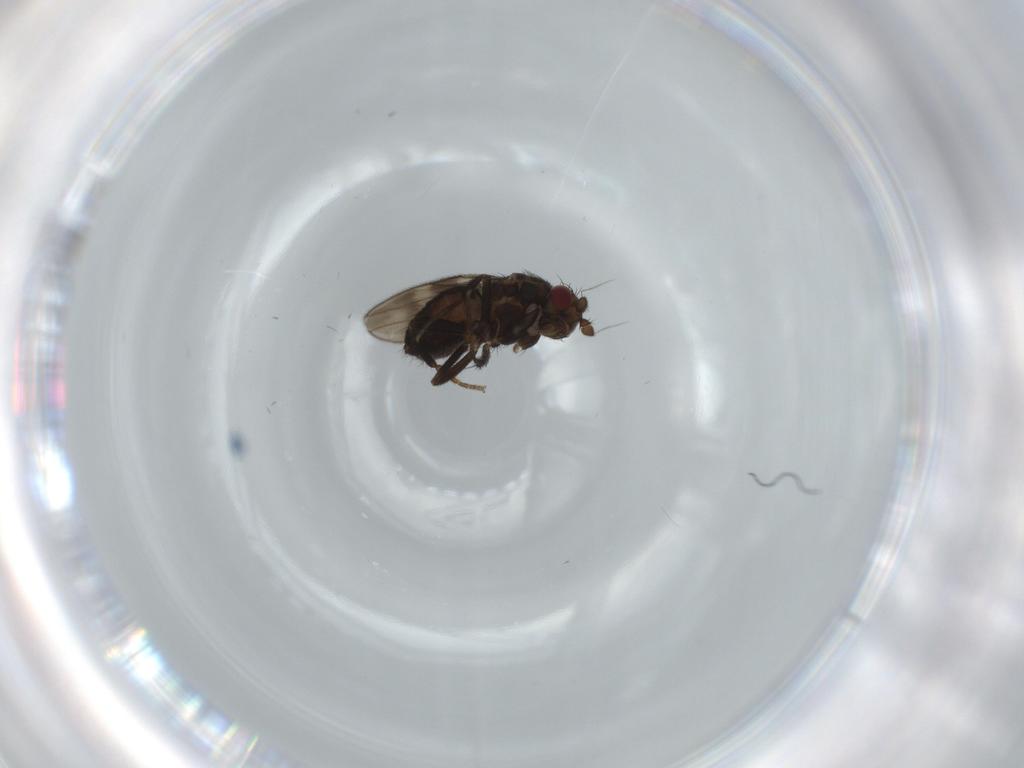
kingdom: Animalia
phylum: Arthropoda
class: Insecta
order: Diptera
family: Sphaeroceridae
